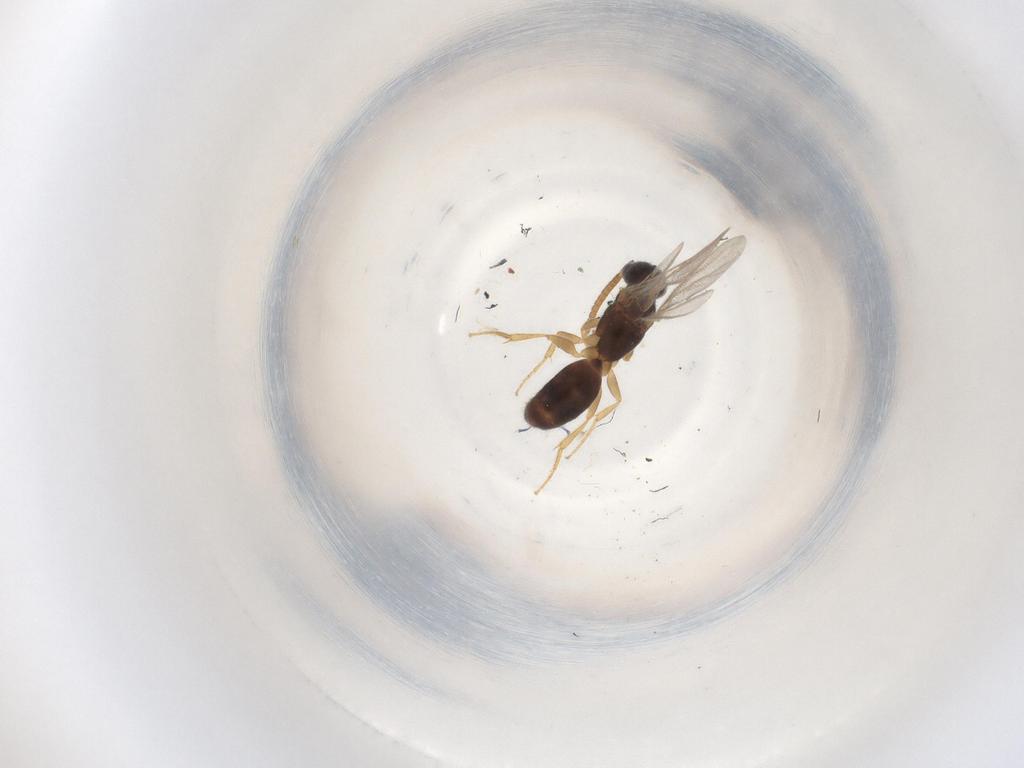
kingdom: Animalia
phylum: Arthropoda
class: Insecta
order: Hymenoptera
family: Bethylidae
